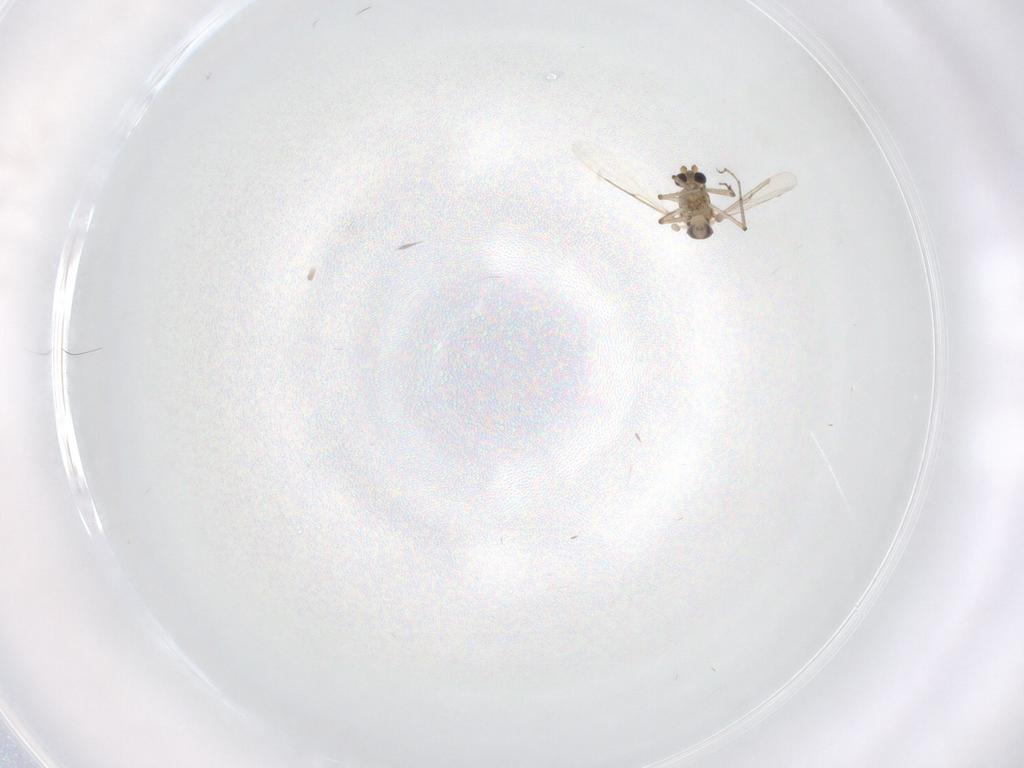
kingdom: Animalia
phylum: Arthropoda
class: Insecta
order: Diptera
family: Ceratopogonidae
